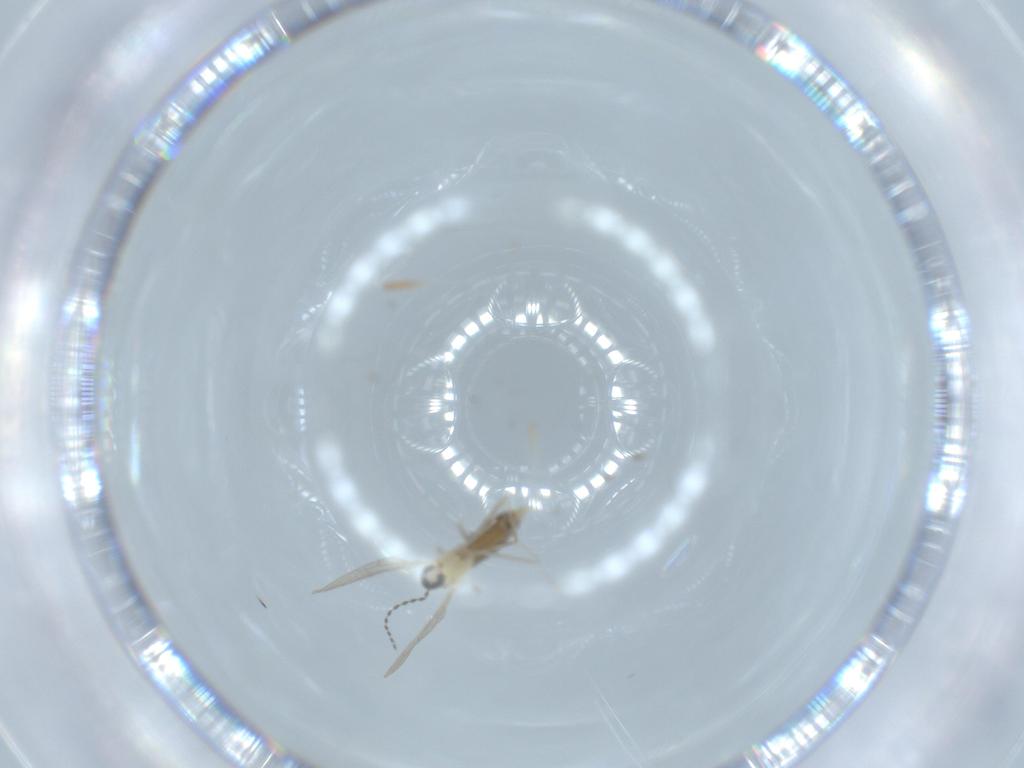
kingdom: Animalia
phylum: Arthropoda
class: Insecta
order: Diptera
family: Cecidomyiidae
